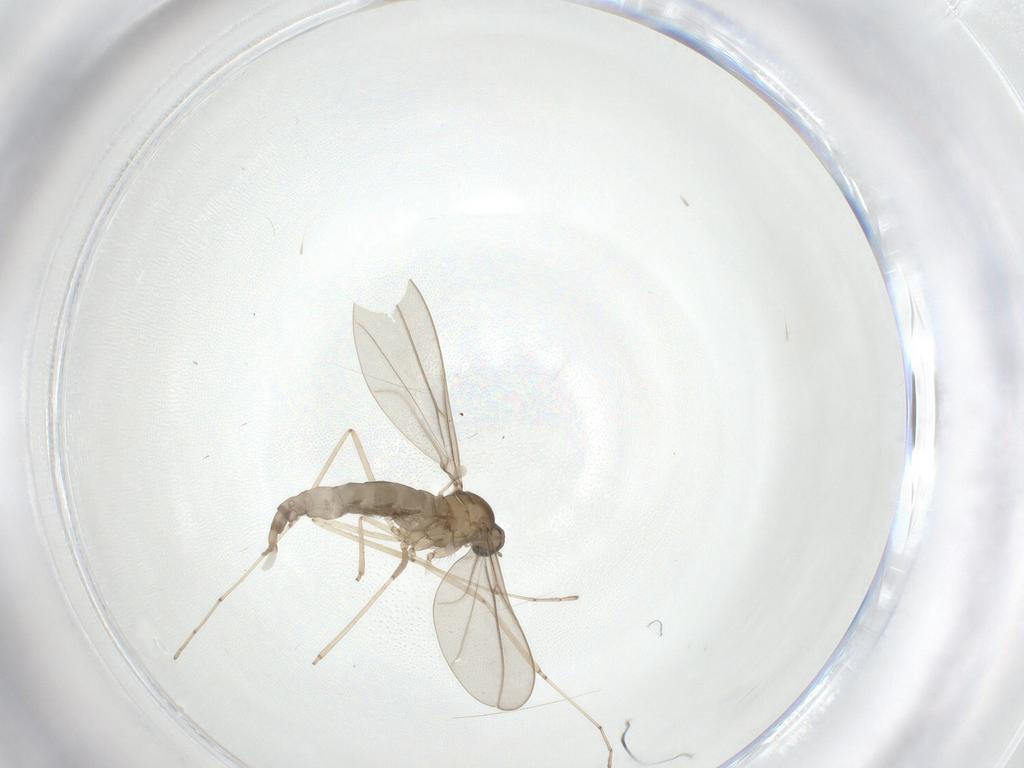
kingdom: Animalia
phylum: Arthropoda
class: Insecta
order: Diptera
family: Cecidomyiidae
